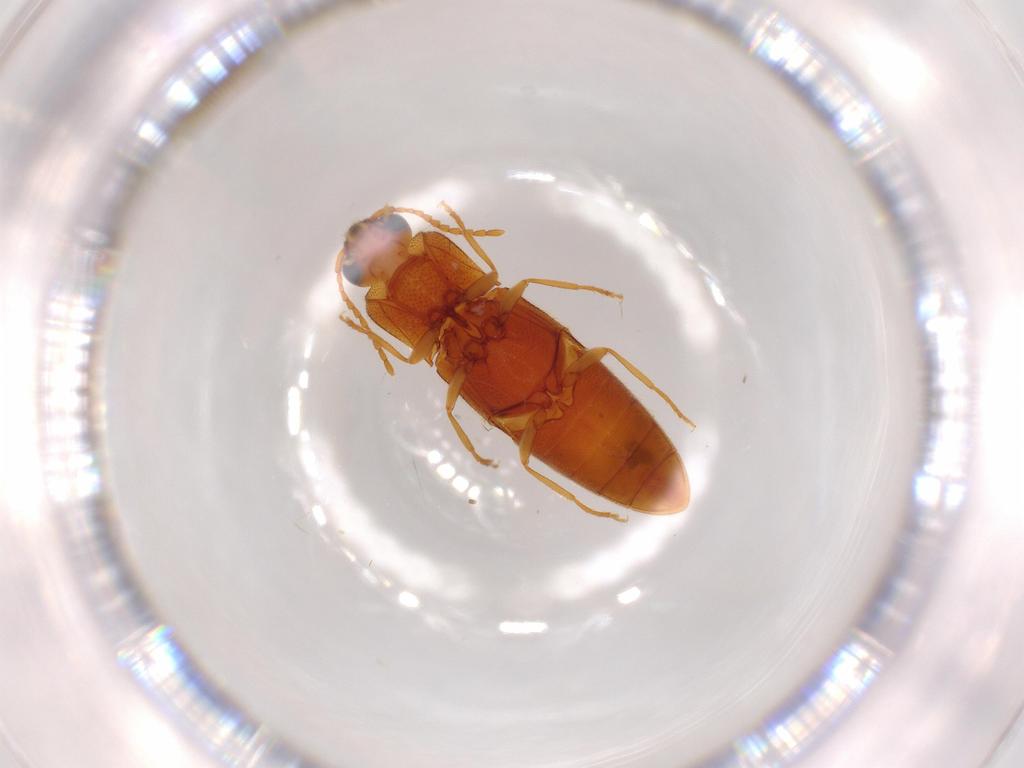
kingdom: Animalia
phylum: Arthropoda
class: Insecta
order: Coleoptera
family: Elateridae
